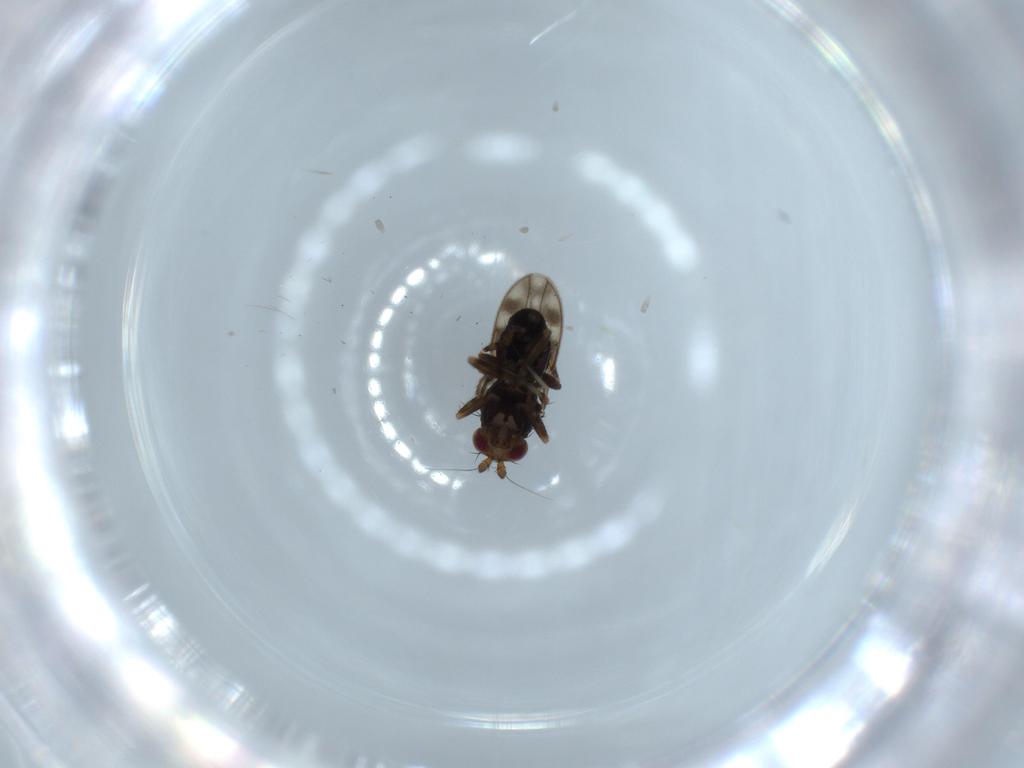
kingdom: Animalia
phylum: Arthropoda
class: Insecta
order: Diptera
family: Sphaeroceridae
